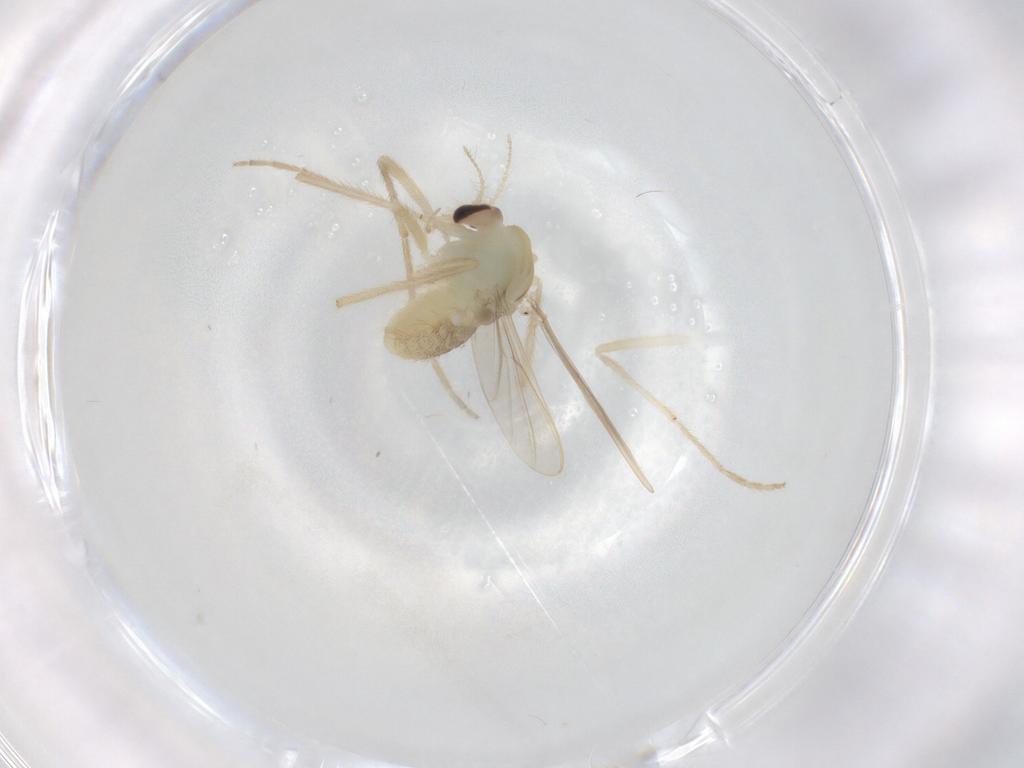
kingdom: Animalia
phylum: Arthropoda
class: Insecta
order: Diptera
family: Chironomidae
